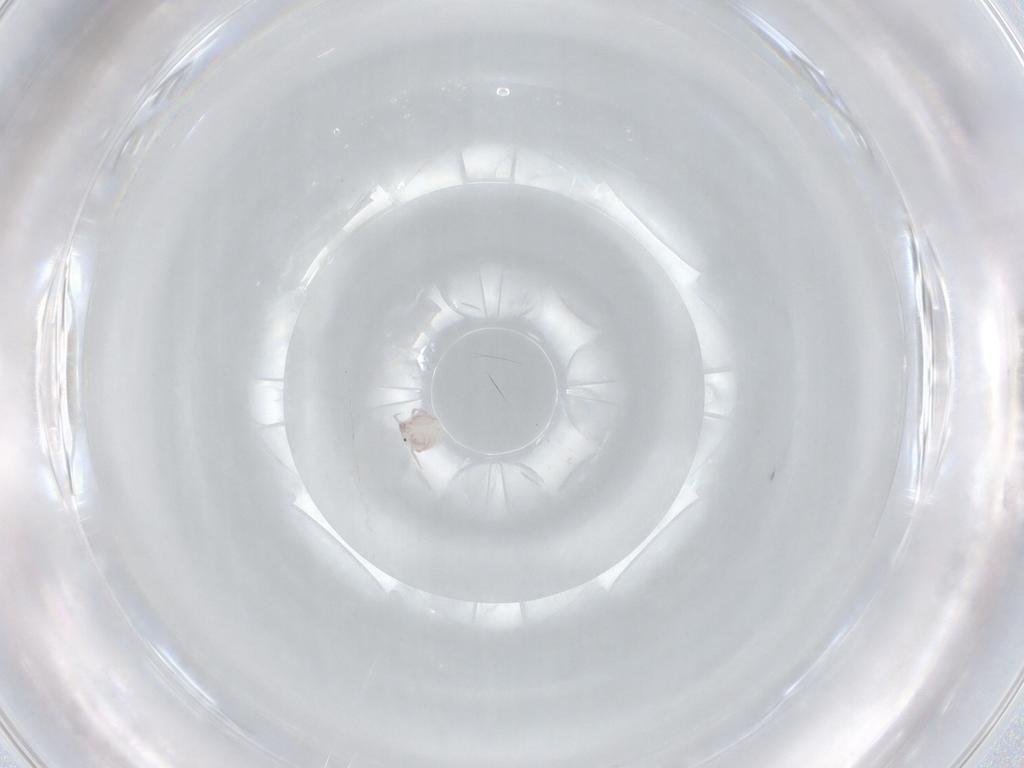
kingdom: Animalia
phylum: Arthropoda
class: Arachnida
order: Trombidiformes
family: Arrenuridae
